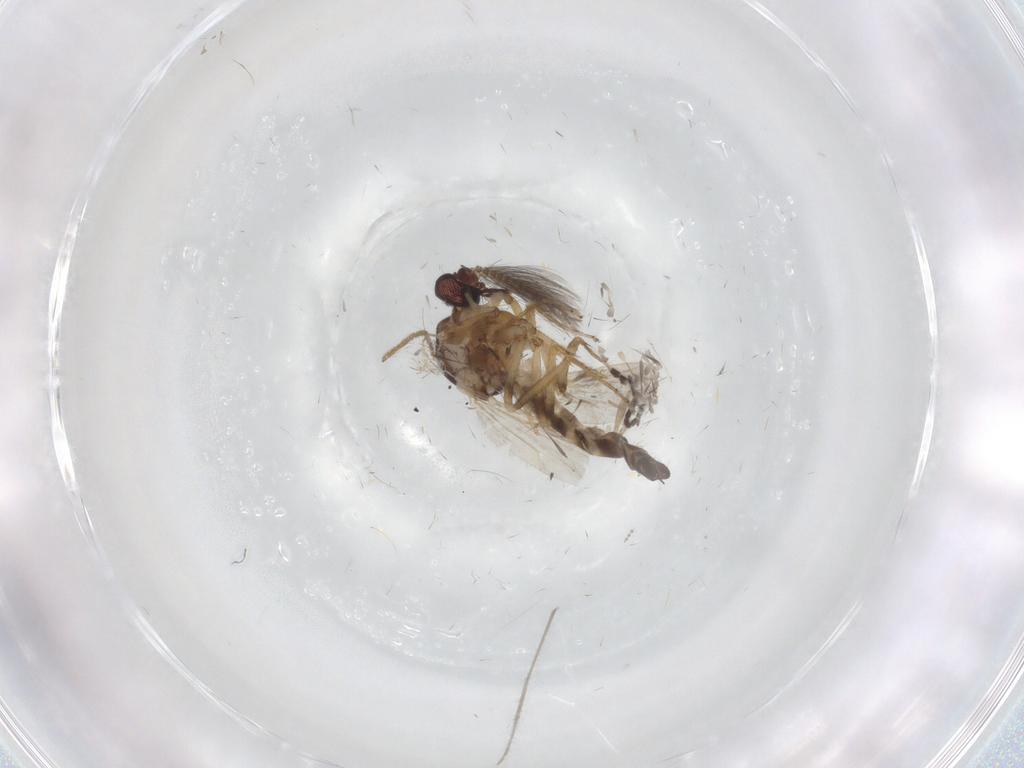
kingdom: Animalia
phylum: Arthropoda
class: Insecta
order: Diptera
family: Ceratopogonidae
